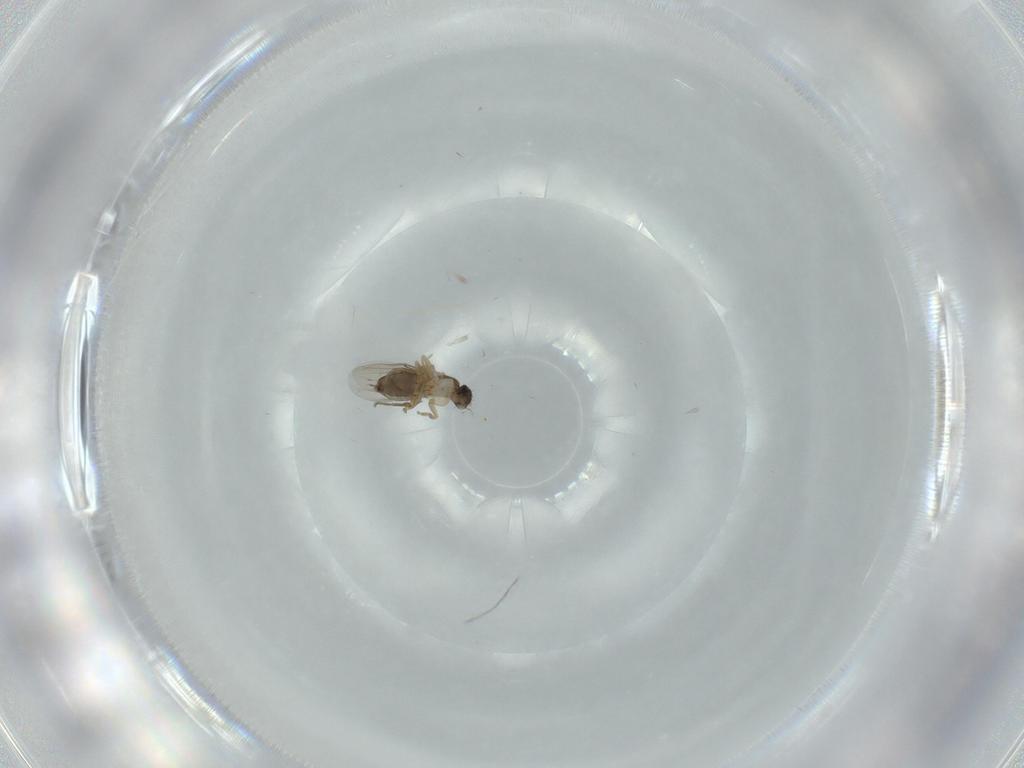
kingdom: Animalia
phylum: Arthropoda
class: Insecta
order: Diptera
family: Phoridae
